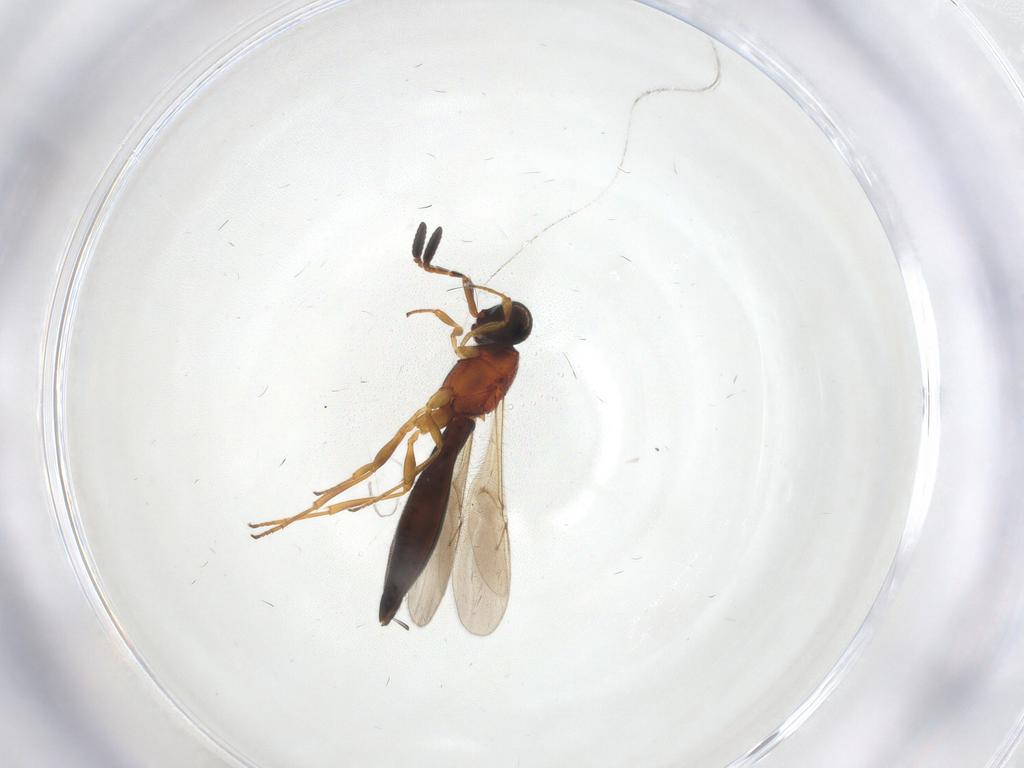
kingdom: Animalia
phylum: Arthropoda
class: Insecta
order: Hymenoptera
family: Scelionidae
